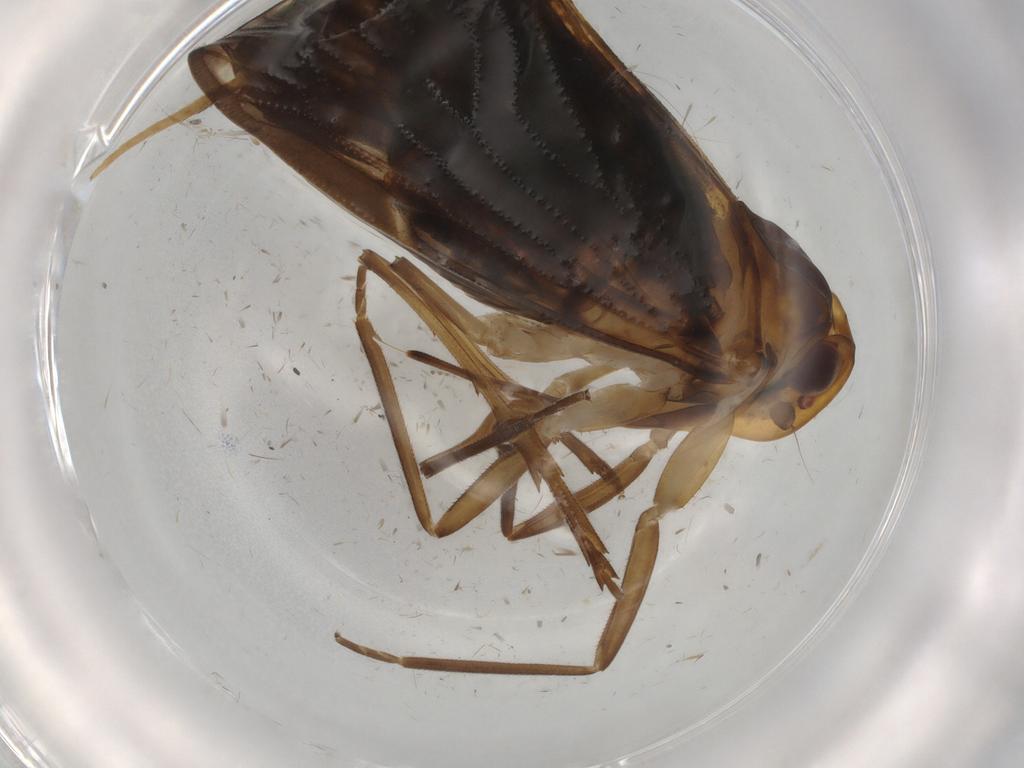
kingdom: Animalia
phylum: Arthropoda
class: Insecta
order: Hemiptera
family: Cixiidae
